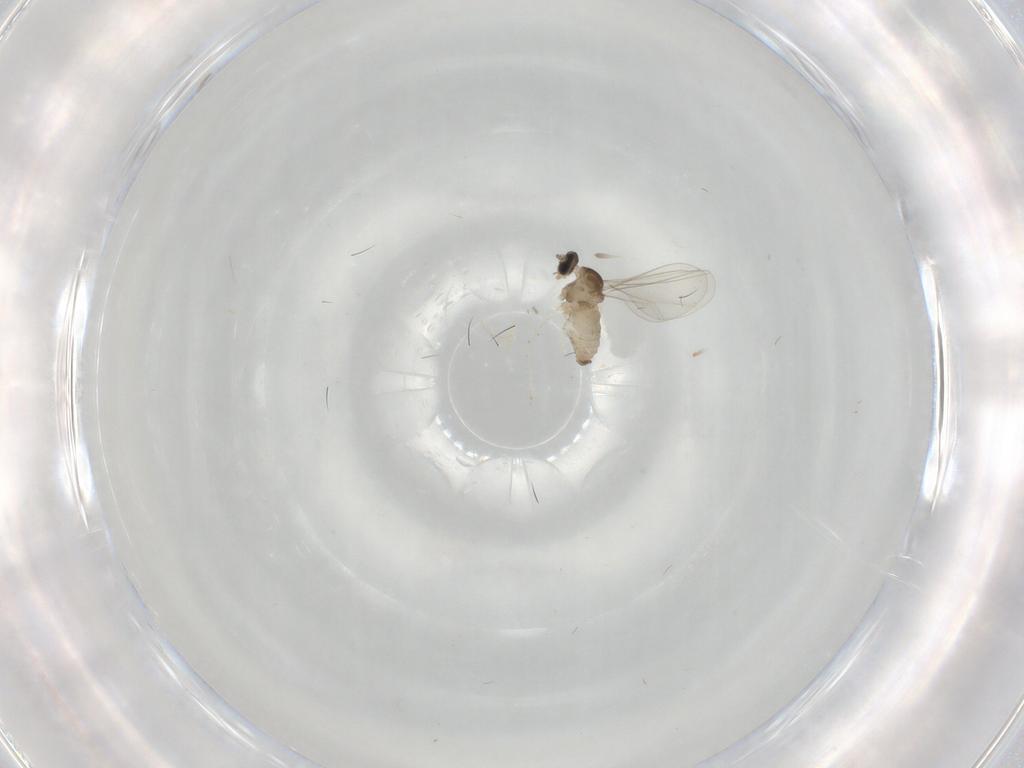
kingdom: Animalia
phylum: Arthropoda
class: Insecta
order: Diptera
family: Cecidomyiidae
